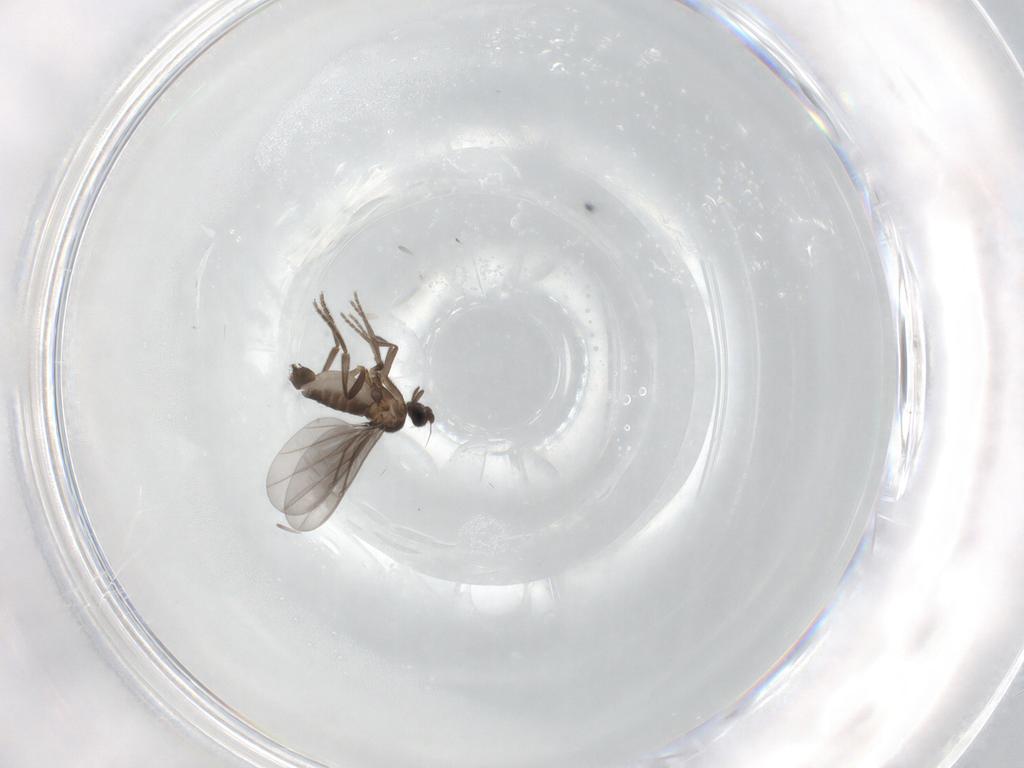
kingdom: Animalia
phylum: Arthropoda
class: Insecta
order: Diptera
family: Phoridae
